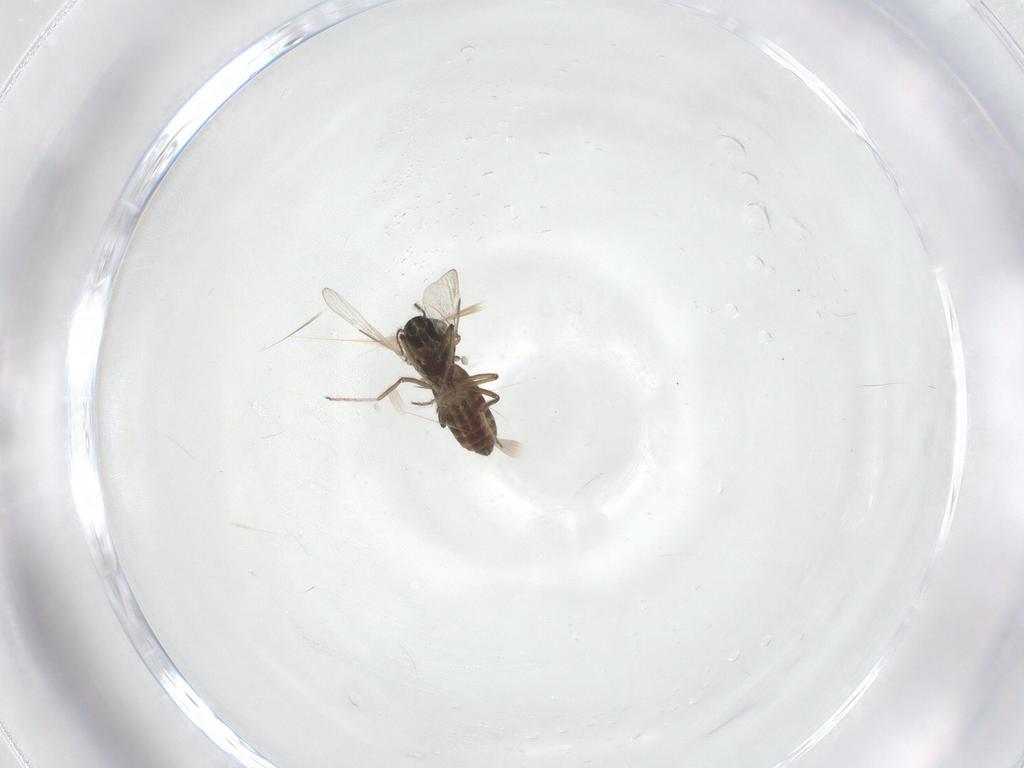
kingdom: Animalia
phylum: Arthropoda
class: Insecta
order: Diptera
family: Ceratopogonidae
